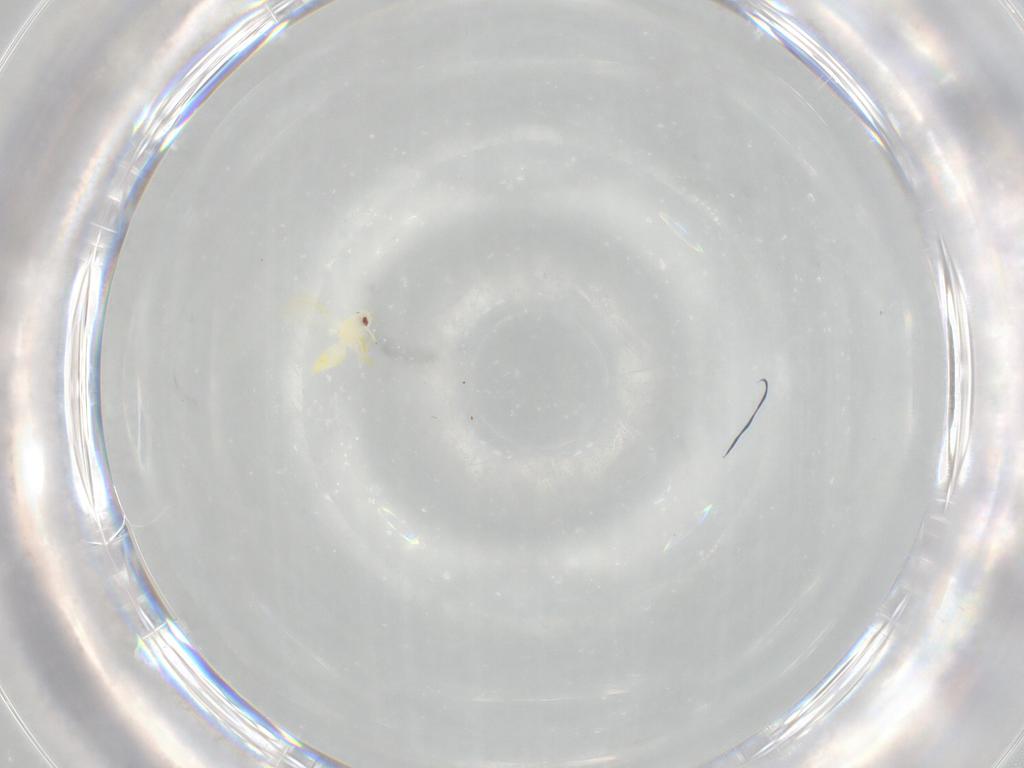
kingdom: Animalia
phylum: Arthropoda
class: Insecta
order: Hemiptera
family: Aleyrodidae
